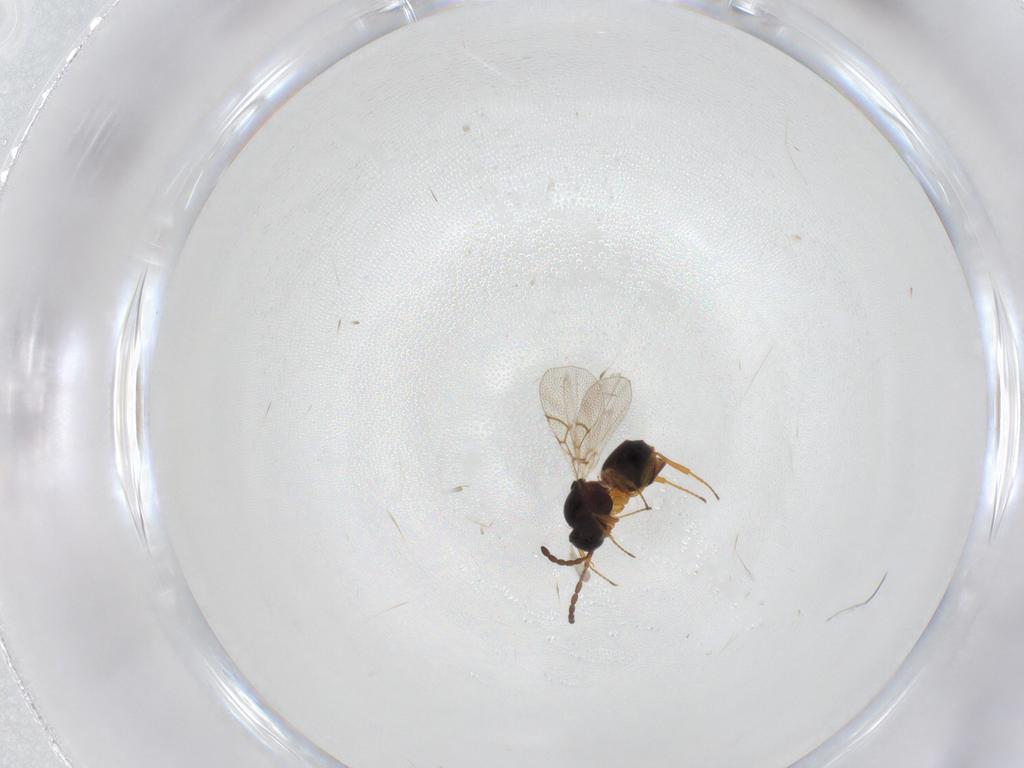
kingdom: Animalia
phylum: Arthropoda
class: Insecta
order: Hymenoptera
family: Figitidae
